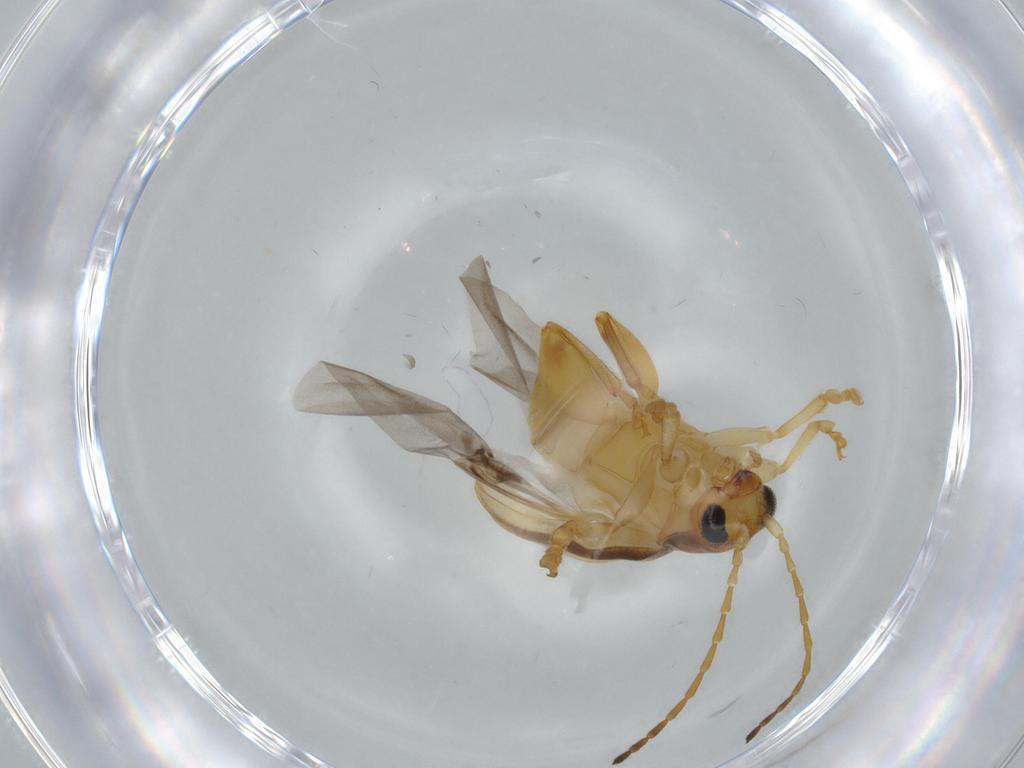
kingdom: Animalia
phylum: Arthropoda
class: Insecta
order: Coleoptera
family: Chrysomelidae
